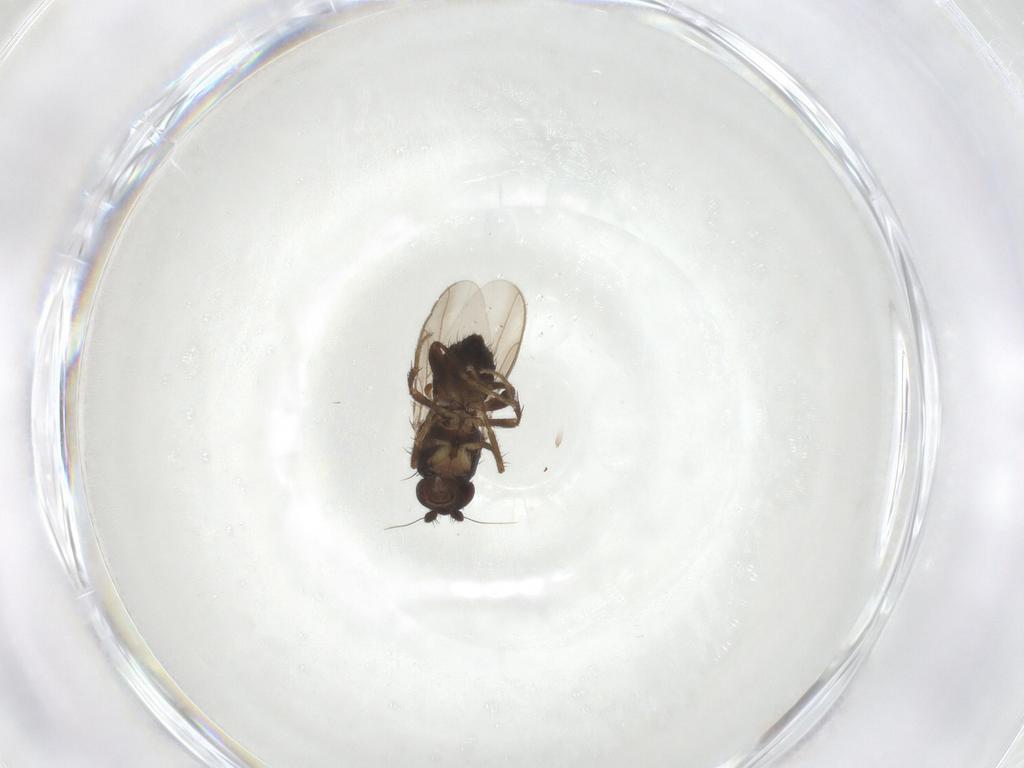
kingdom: Animalia
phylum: Arthropoda
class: Insecta
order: Diptera
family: Sphaeroceridae
